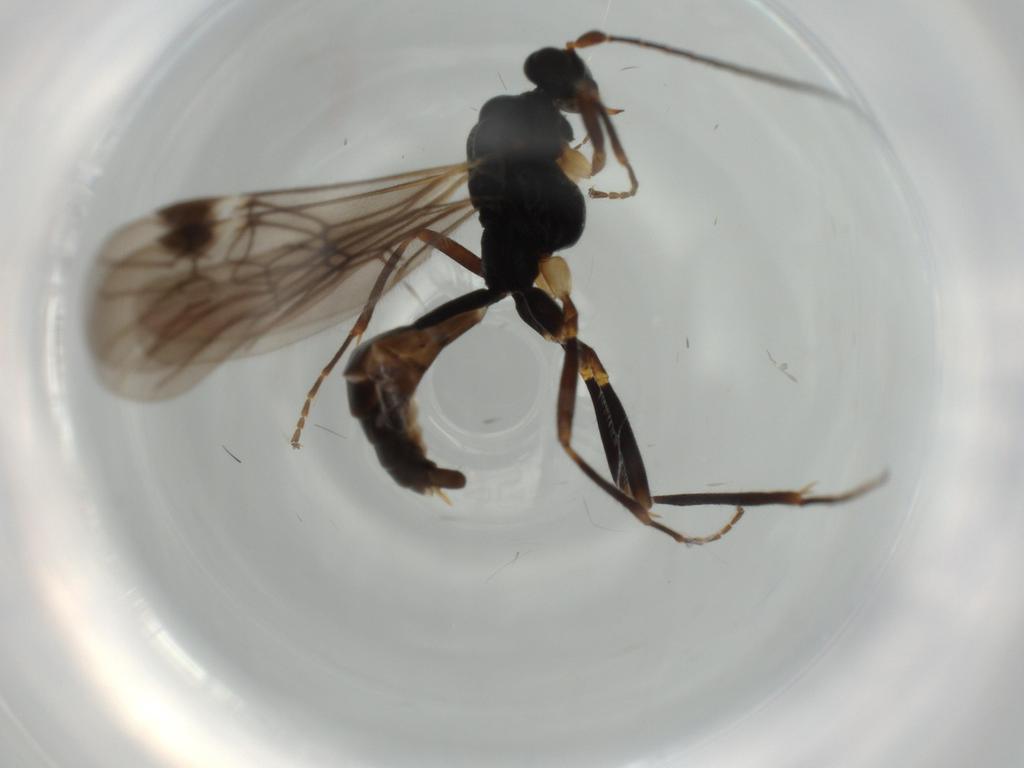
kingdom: Animalia
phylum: Arthropoda
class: Insecta
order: Hymenoptera
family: Braconidae
